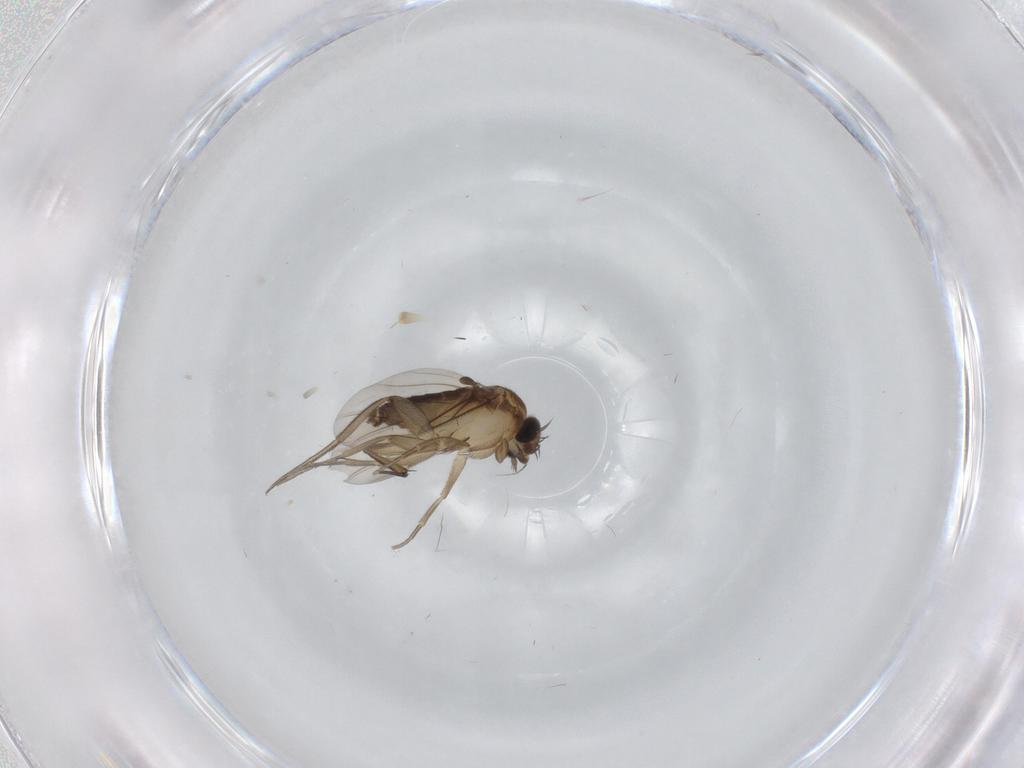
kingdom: Animalia
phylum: Arthropoda
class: Insecta
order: Diptera
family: Phoridae
